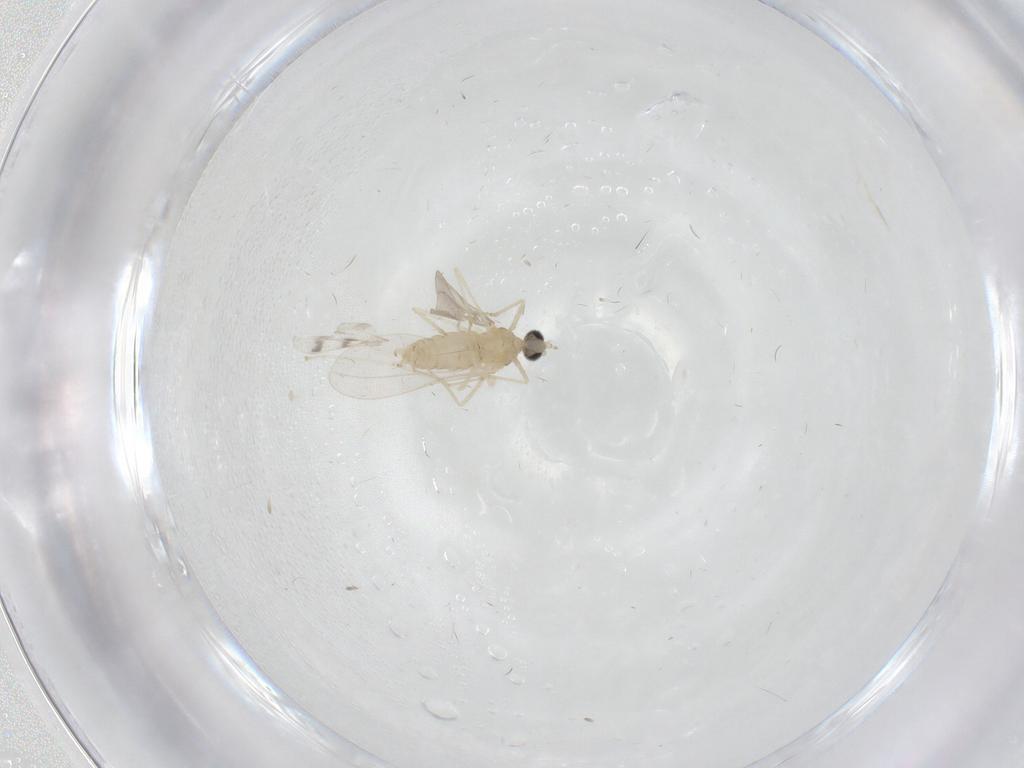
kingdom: Animalia
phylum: Arthropoda
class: Insecta
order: Diptera
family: Cecidomyiidae
